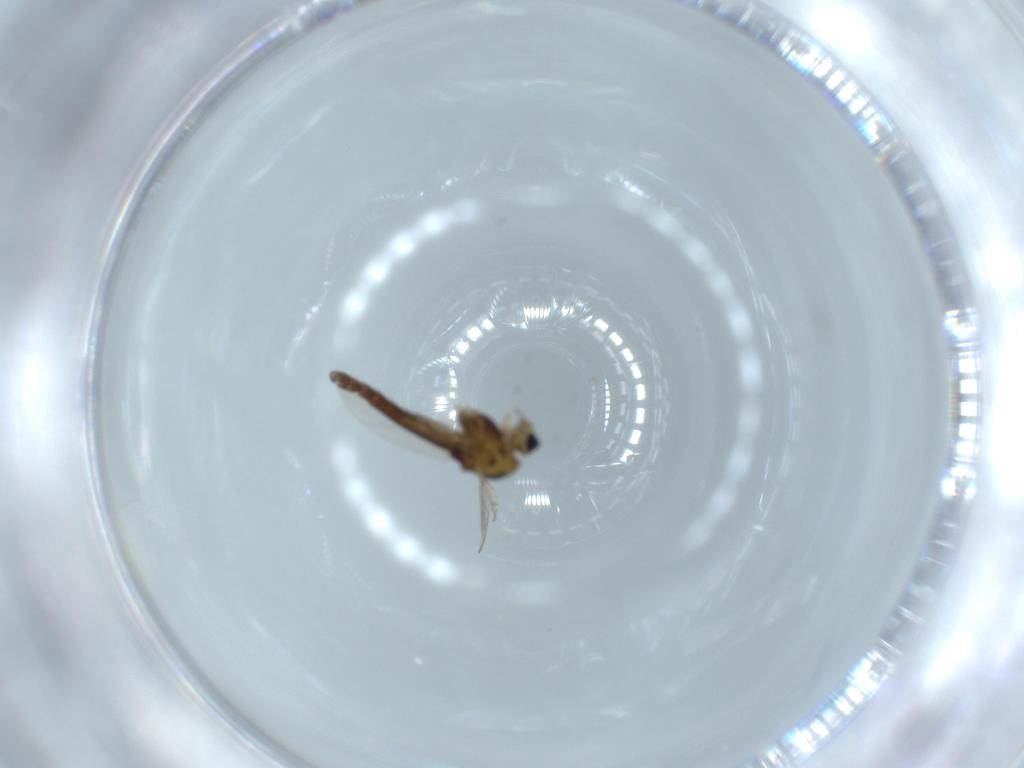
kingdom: Animalia
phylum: Arthropoda
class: Insecta
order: Diptera
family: Chironomidae
